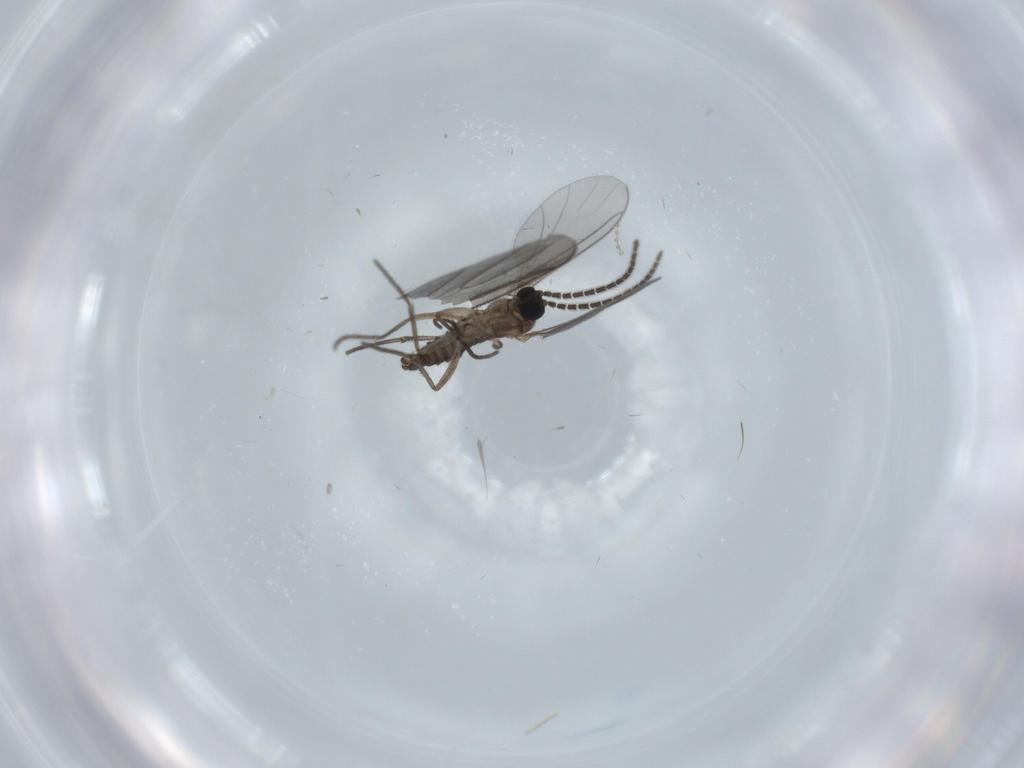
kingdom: Animalia
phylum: Arthropoda
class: Insecta
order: Diptera
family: Sciaridae
